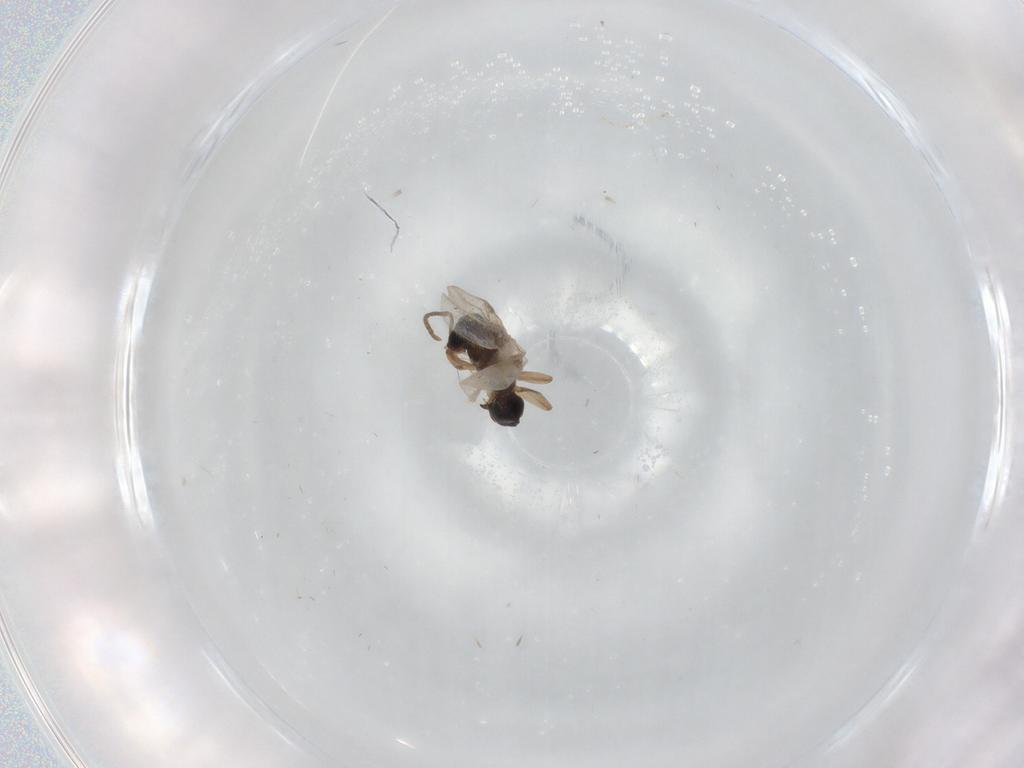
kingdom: Animalia
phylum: Arthropoda
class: Insecta
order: Hymenoptera
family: Formicidae
